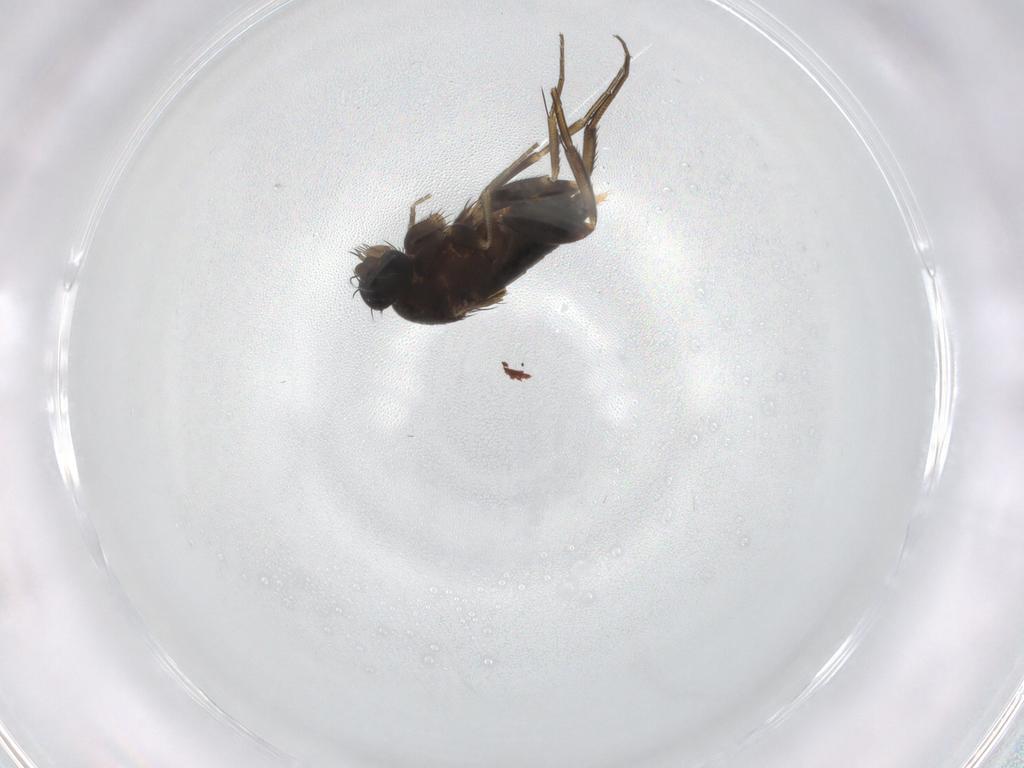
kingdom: Animalia
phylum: Arthropoda
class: Insecta
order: Diptera
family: Phoridae
